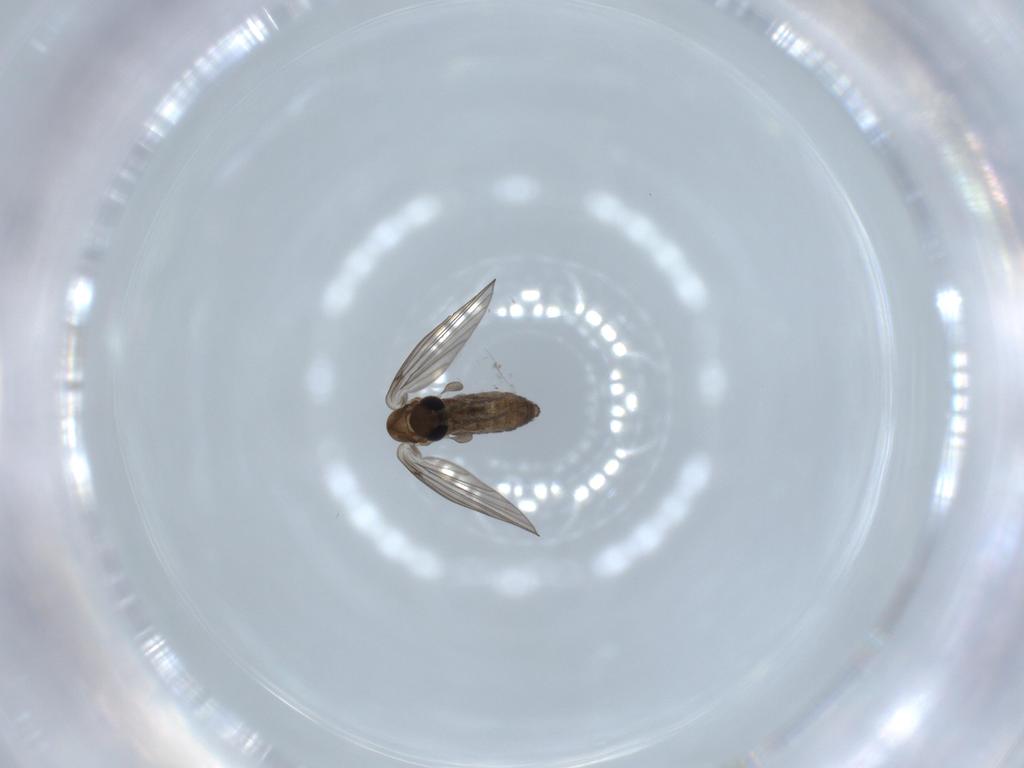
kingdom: Animalia
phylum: Arthropoda
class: Insecta
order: Diptera
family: Psychodidae
